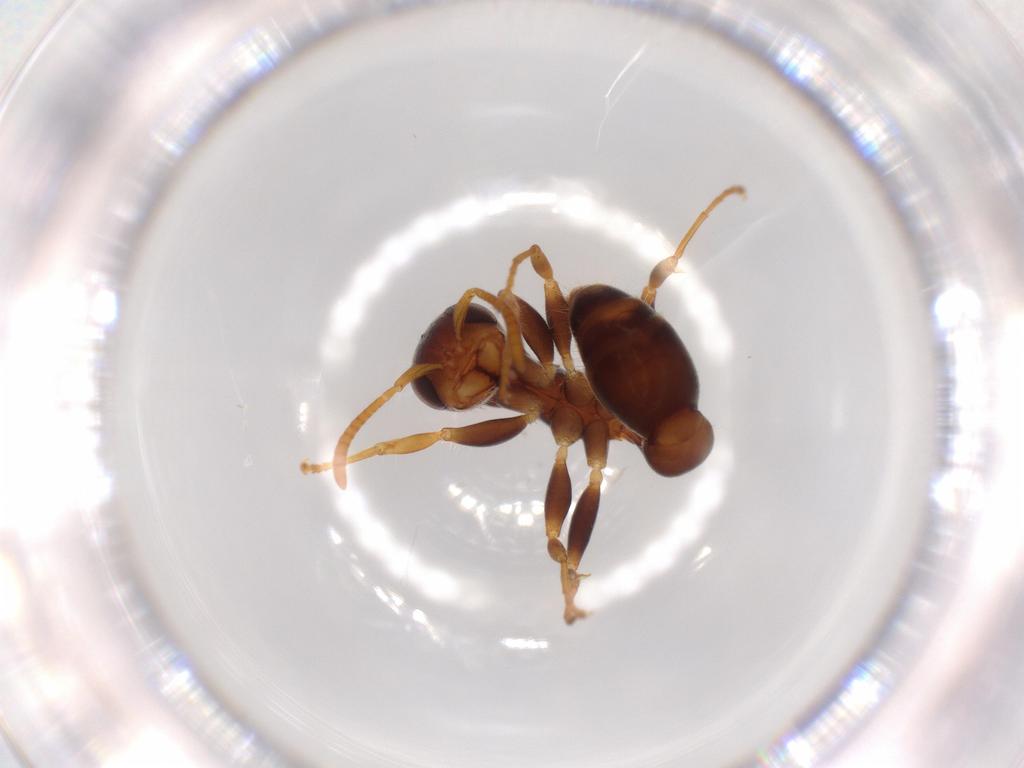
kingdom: Animalia
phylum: Arthropoda
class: Insecta
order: Hymenoptera
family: Formicidae
